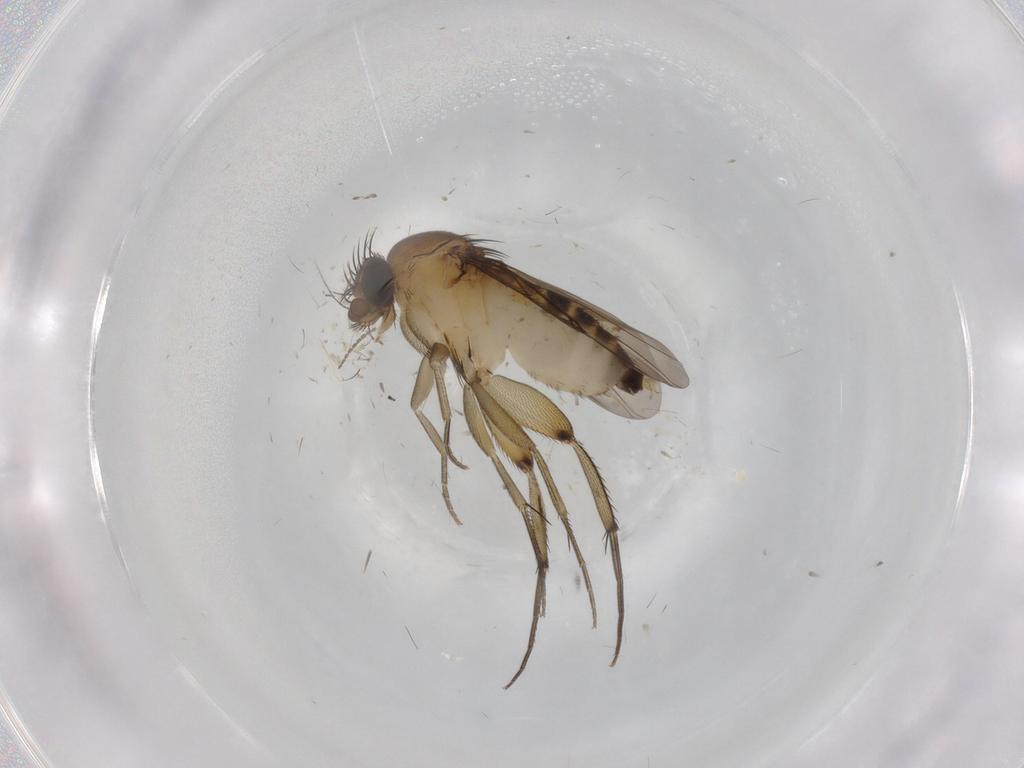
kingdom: Animalia
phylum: Arthropoda
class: Insecta
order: Diptera
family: Phoridae
